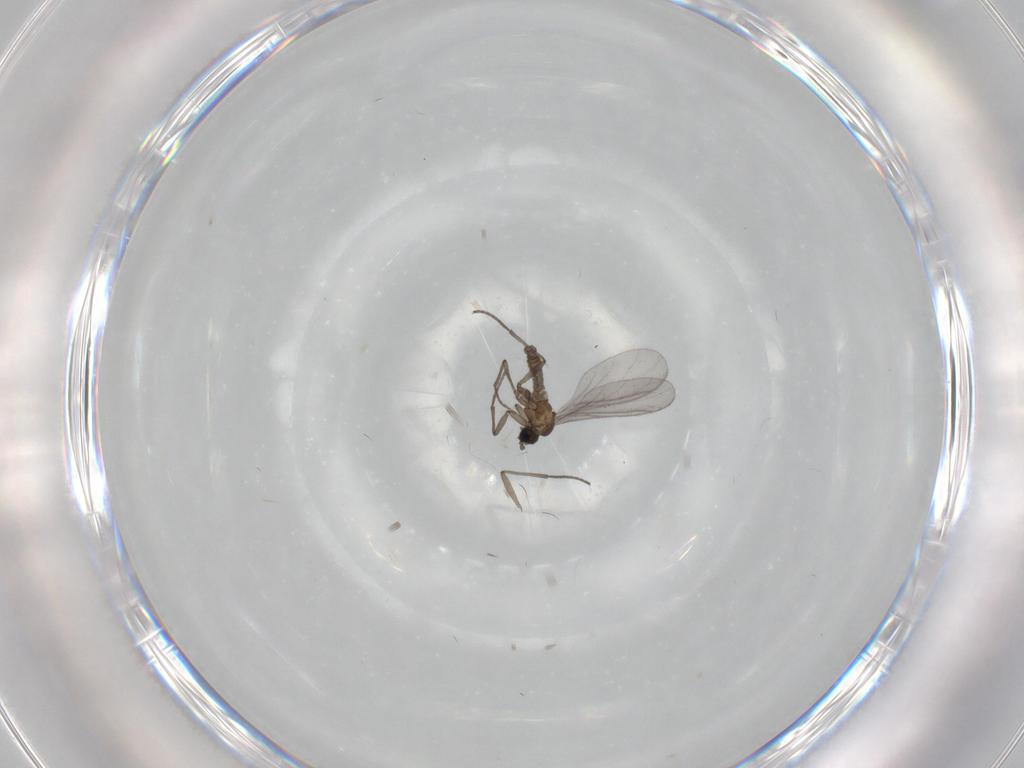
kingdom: Animalia
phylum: Arthropoda
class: Insecta
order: Diptera
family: Sciaridae
